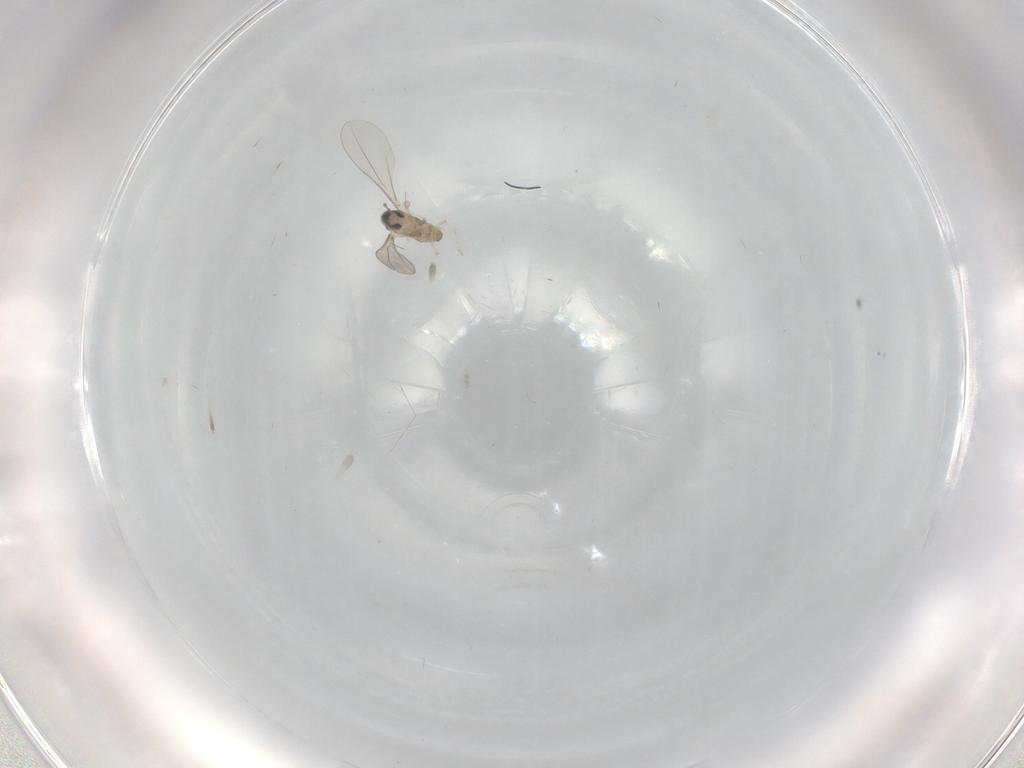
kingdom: Animalia
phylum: Arthropoda
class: Insecta
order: Diptera
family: Cecidomyiidae
